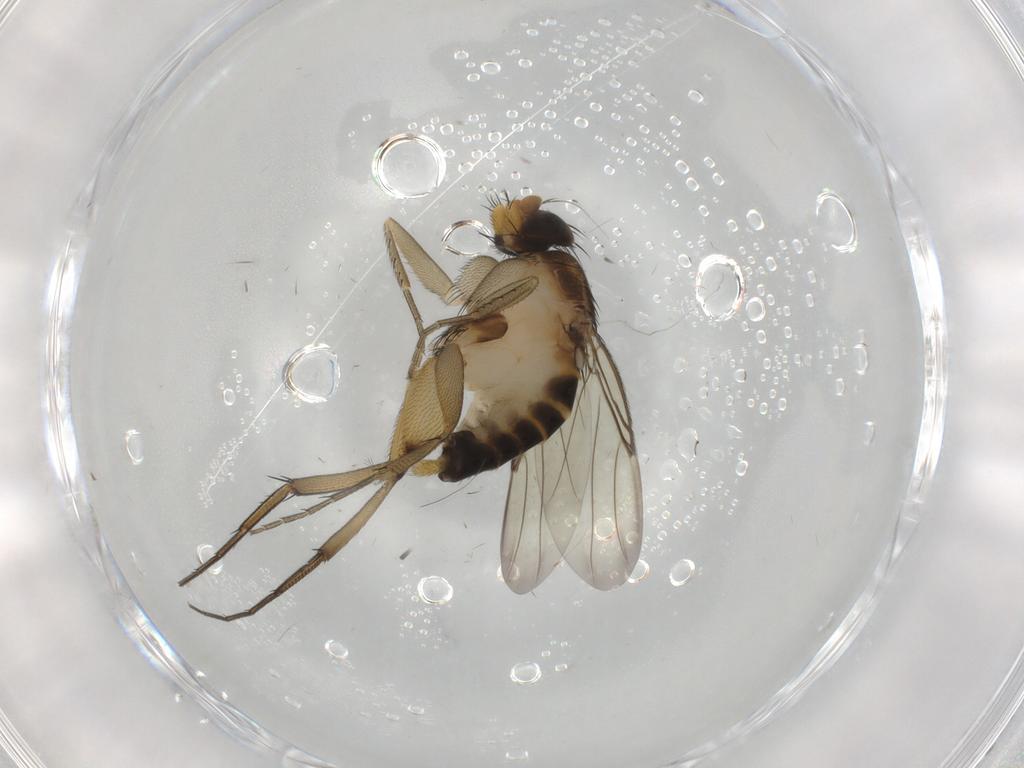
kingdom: Animalia
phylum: Arthropoda
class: Insecta
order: Diptera
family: Phoridae
